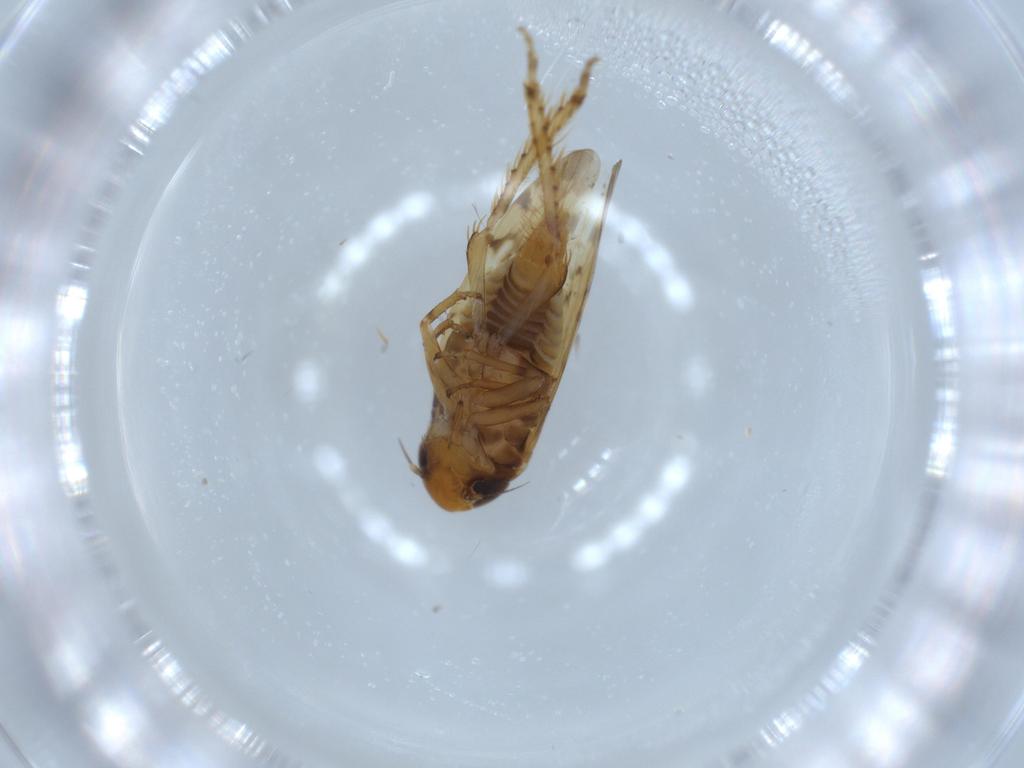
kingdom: Animalia
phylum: Arthropoda
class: Insecta
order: Hemiptera
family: Cicadellidae
